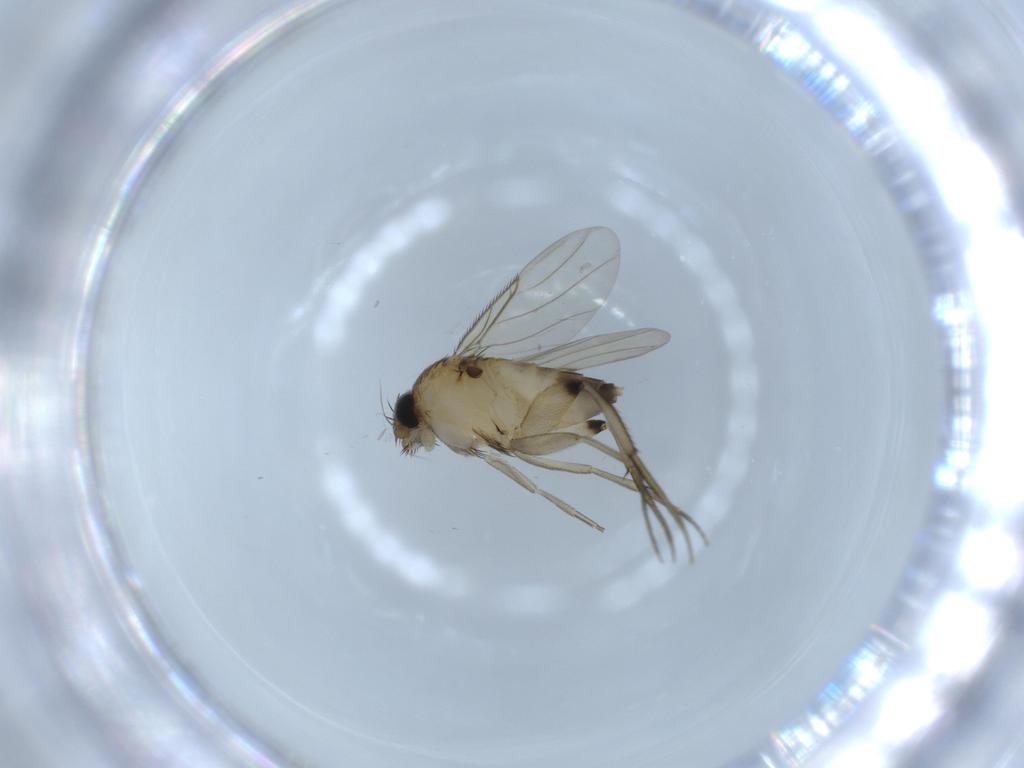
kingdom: Animalia
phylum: Arthropoda
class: Insecta
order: Diptera
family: Phoridae
